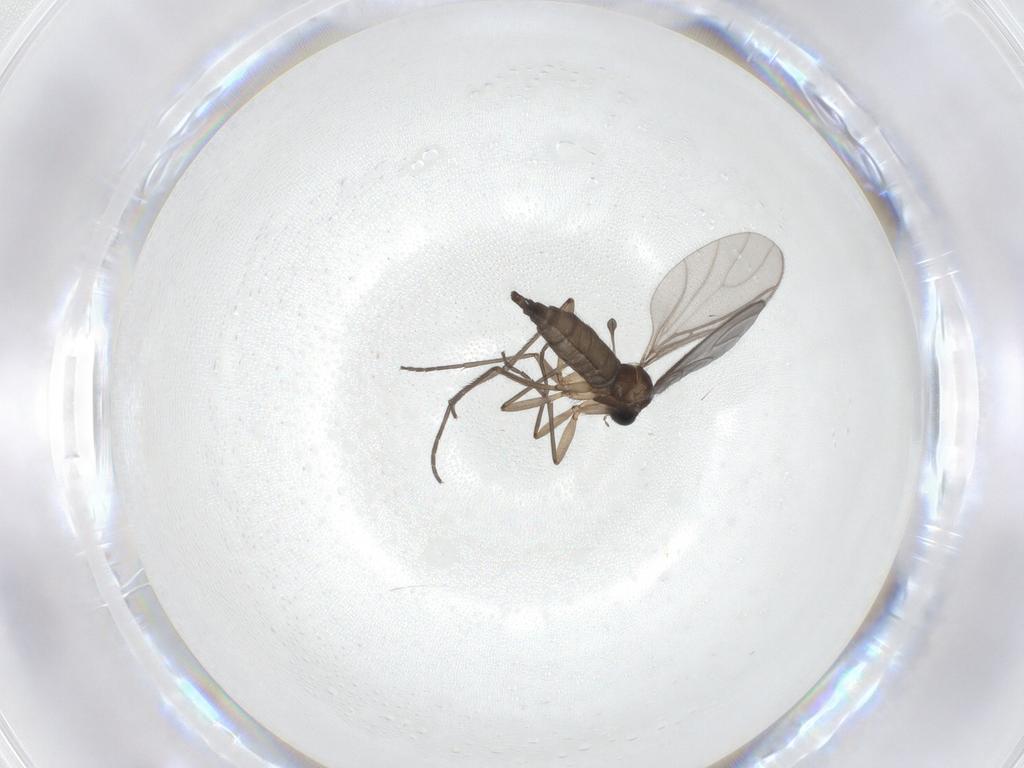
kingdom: Animalia
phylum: Arthropoda
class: Insecta
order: Diptera
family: Sciaridae
